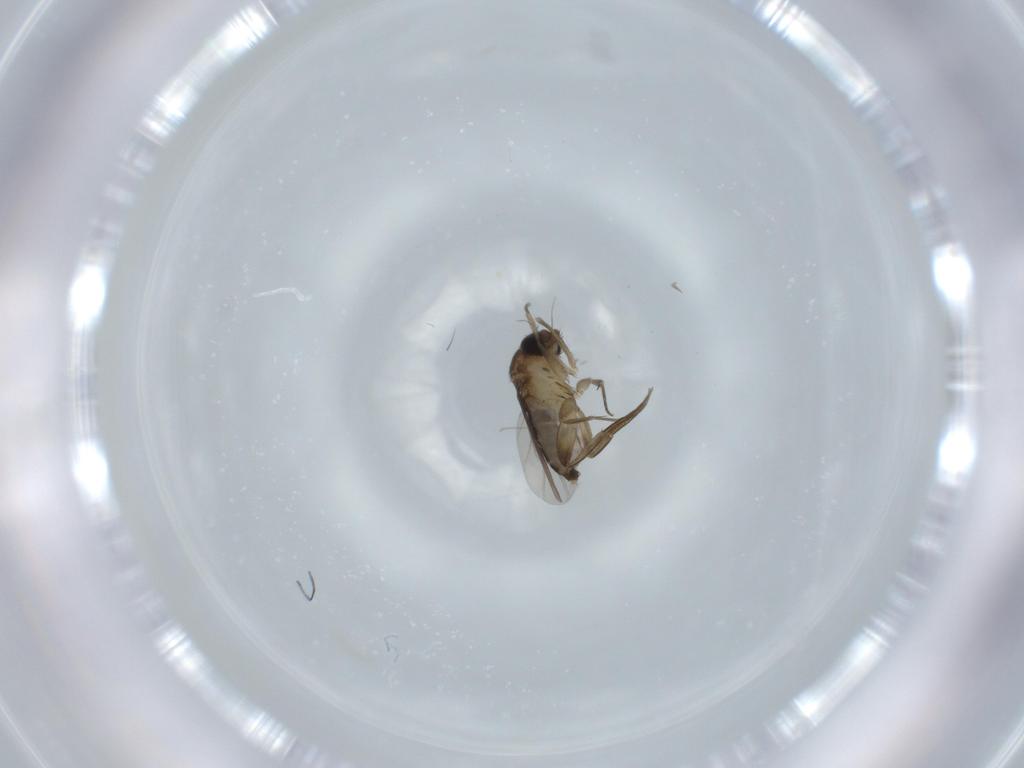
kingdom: Animalia
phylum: Arthropoda
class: Insecta
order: Diptera
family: Phoridae
